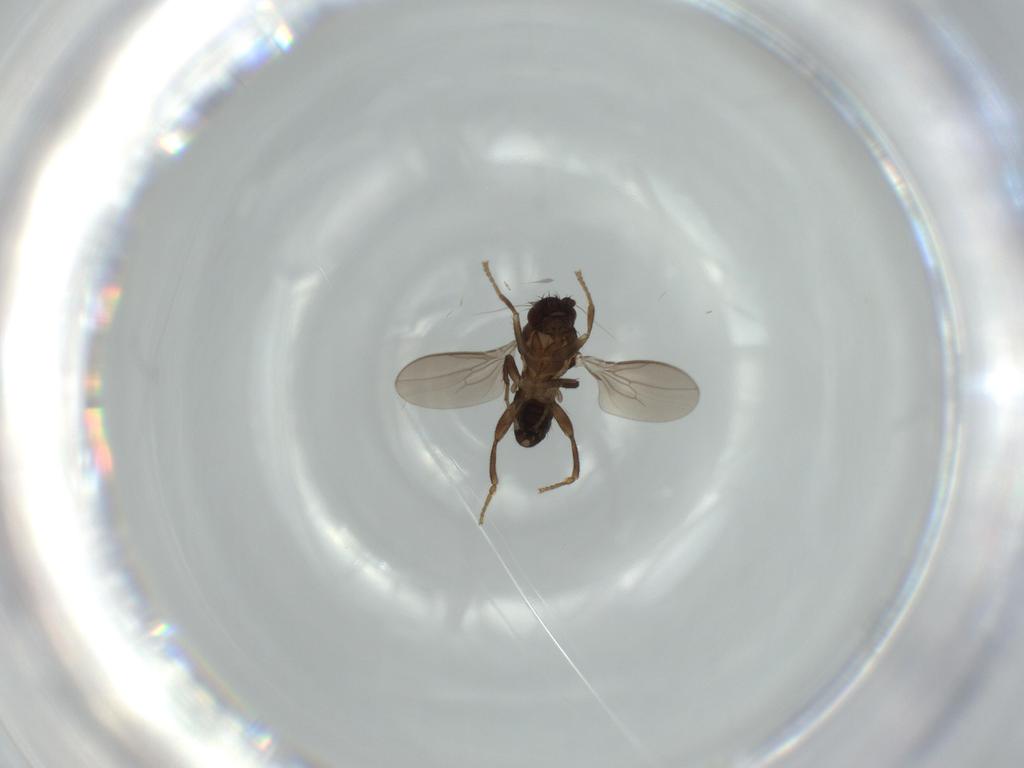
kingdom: Animalia
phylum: Arthropoda
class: Insecta
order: Diptera
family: Sphaeroceridae
